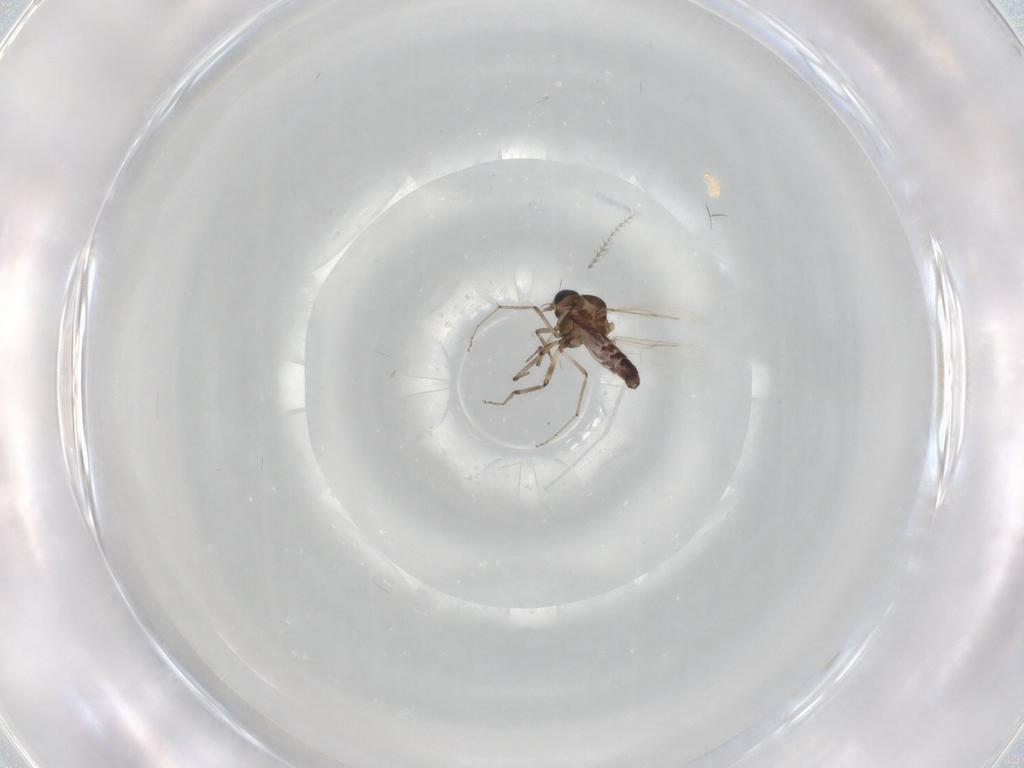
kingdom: Animalia
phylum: Arthropoda
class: Insecta
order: Diptera
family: Ceratopogonidae
